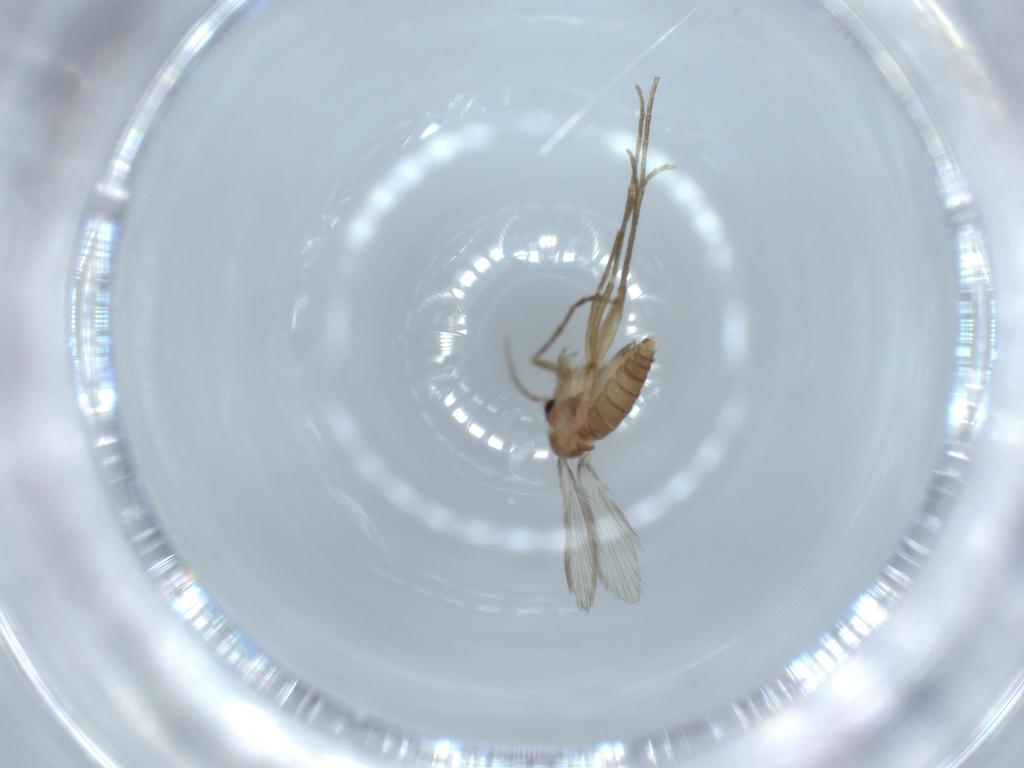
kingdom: Animalia
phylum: Arthropoda
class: Insecta
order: Diptera
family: Psychodidae
